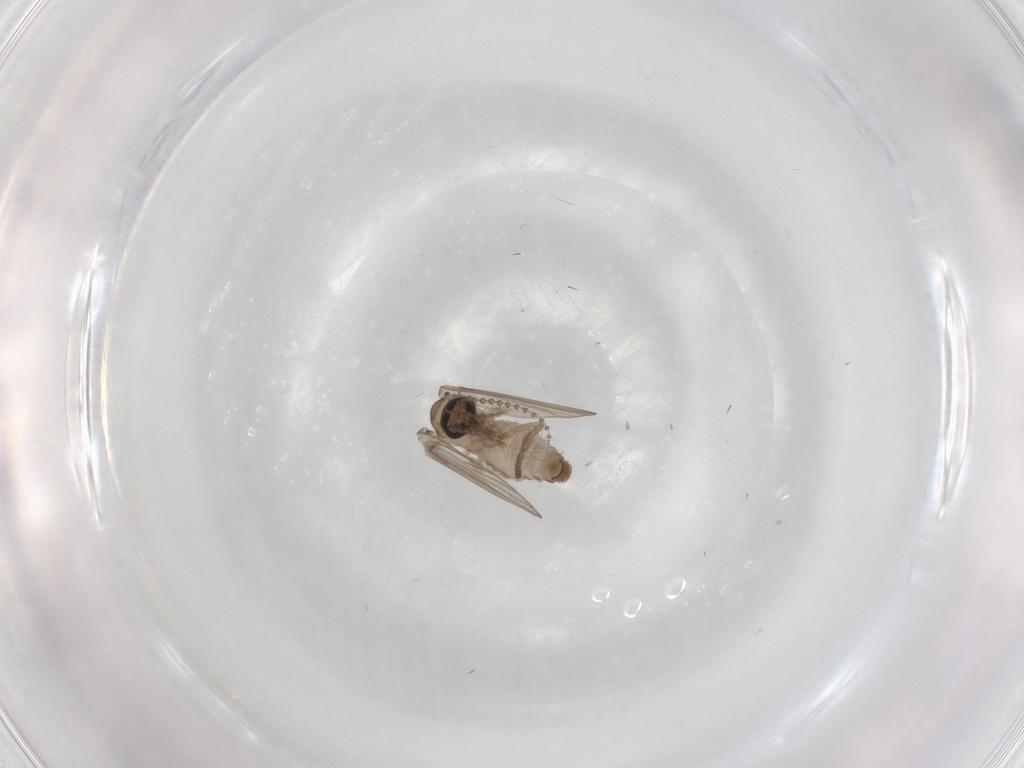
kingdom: Animalia
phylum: Arthropoda
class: Insecta
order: Diptera
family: Psychodidae
